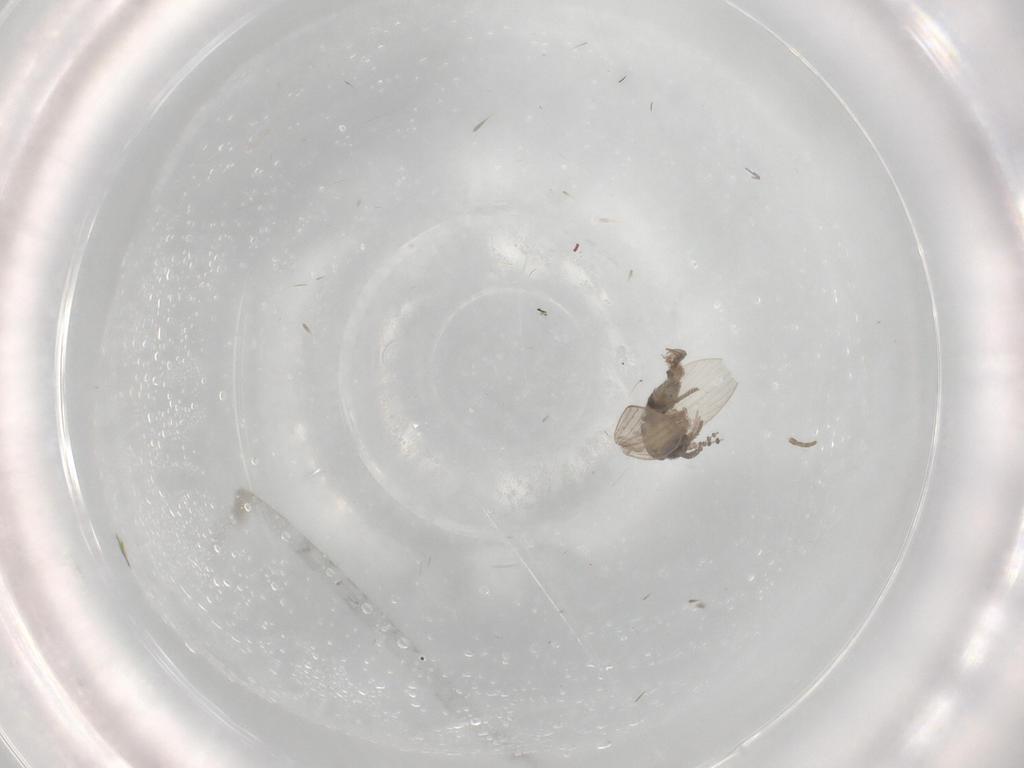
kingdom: Animalia
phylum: Arthropoda
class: Insecta
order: Diptera
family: Psychodidae
